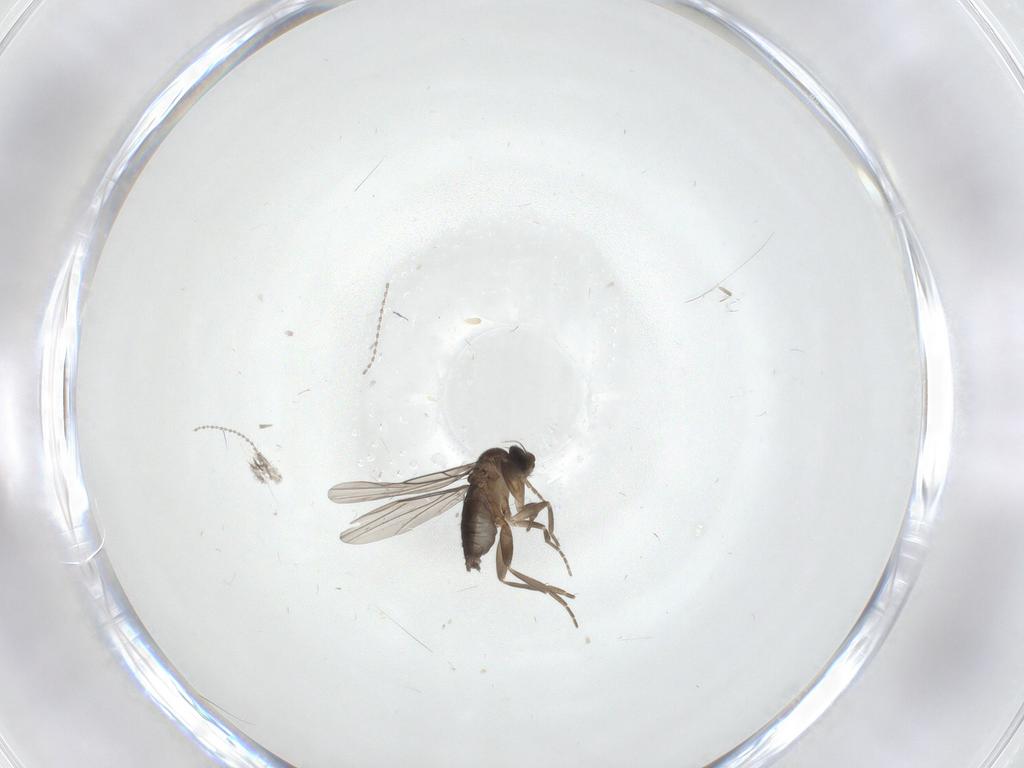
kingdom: Animalia
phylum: Arthropoda
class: Insecta
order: Diptera
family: Phoridae
